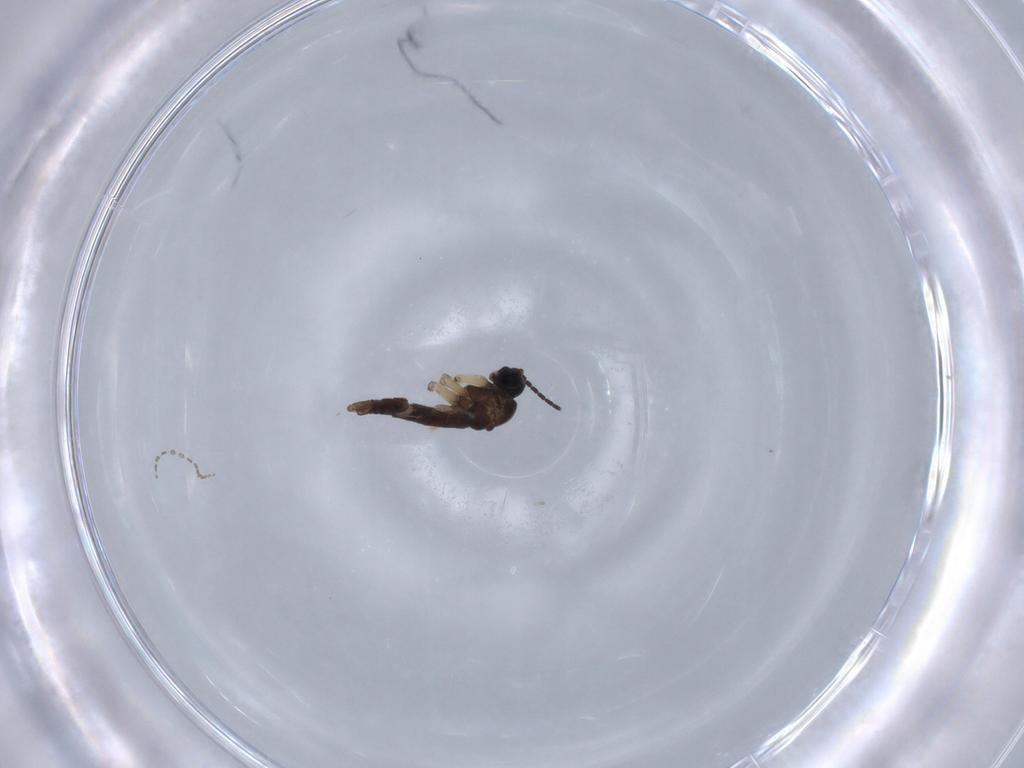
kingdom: Animalia
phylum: Arthropoda
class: Insecta
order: Diptera
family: Sciaridae
